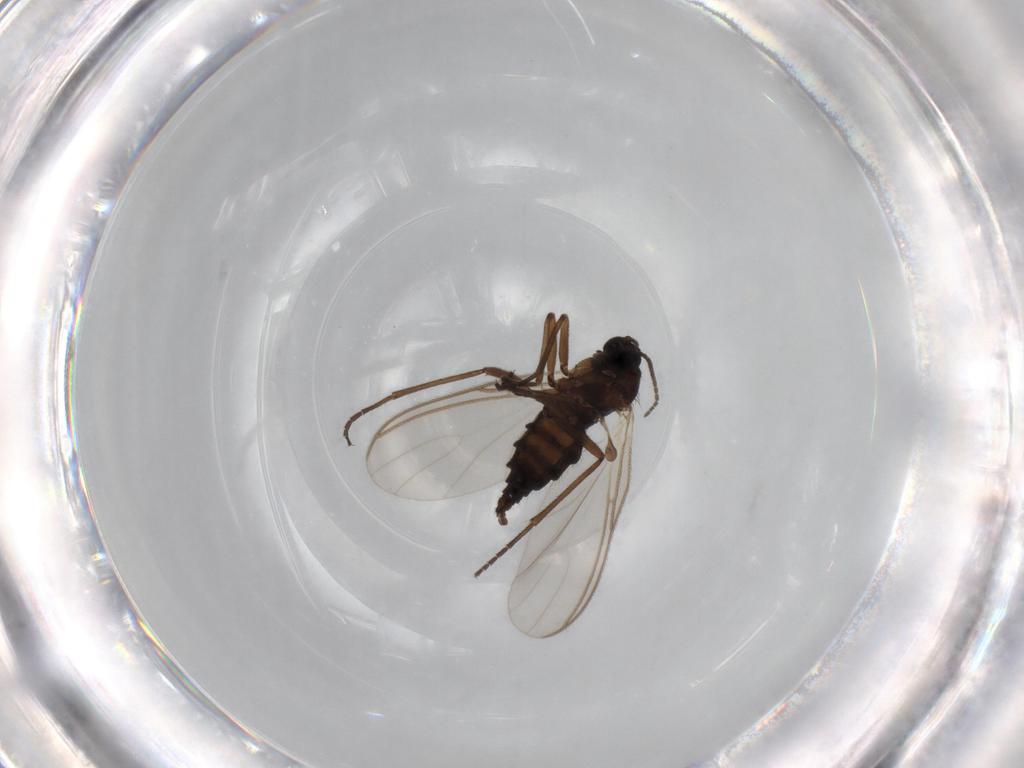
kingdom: Animalia
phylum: Arthropoda
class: Insecta
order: Diptera
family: Sciaridae
